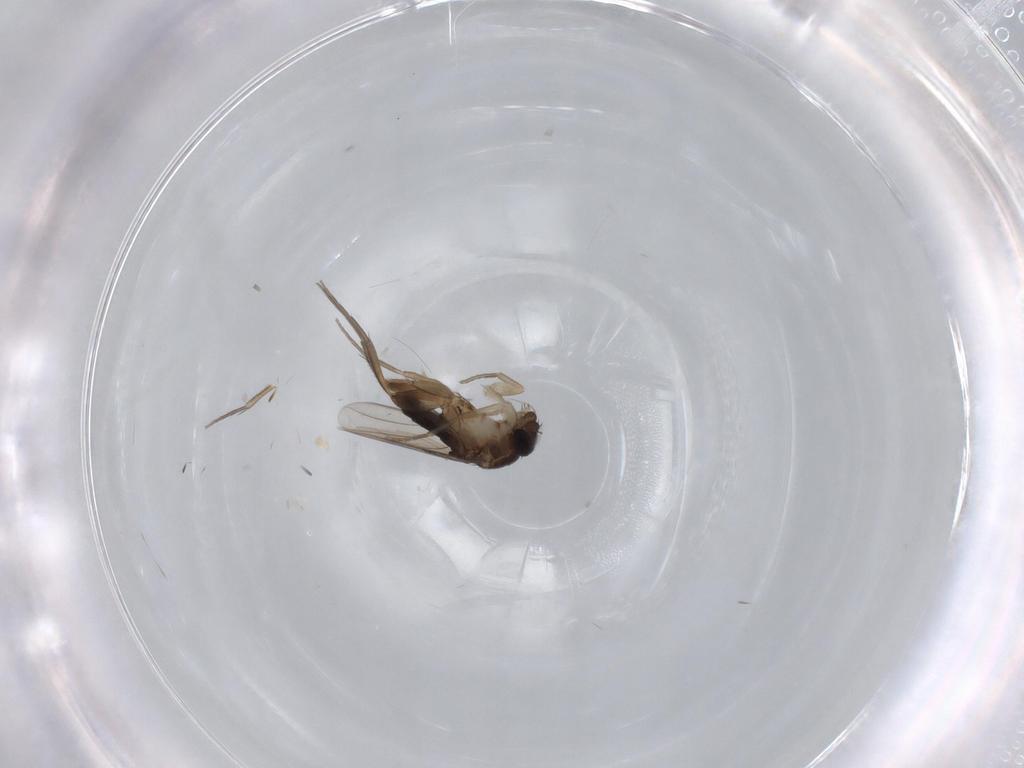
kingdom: Animalia
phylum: Arthropoda
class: Insecta
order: Diptera
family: Phoridae
